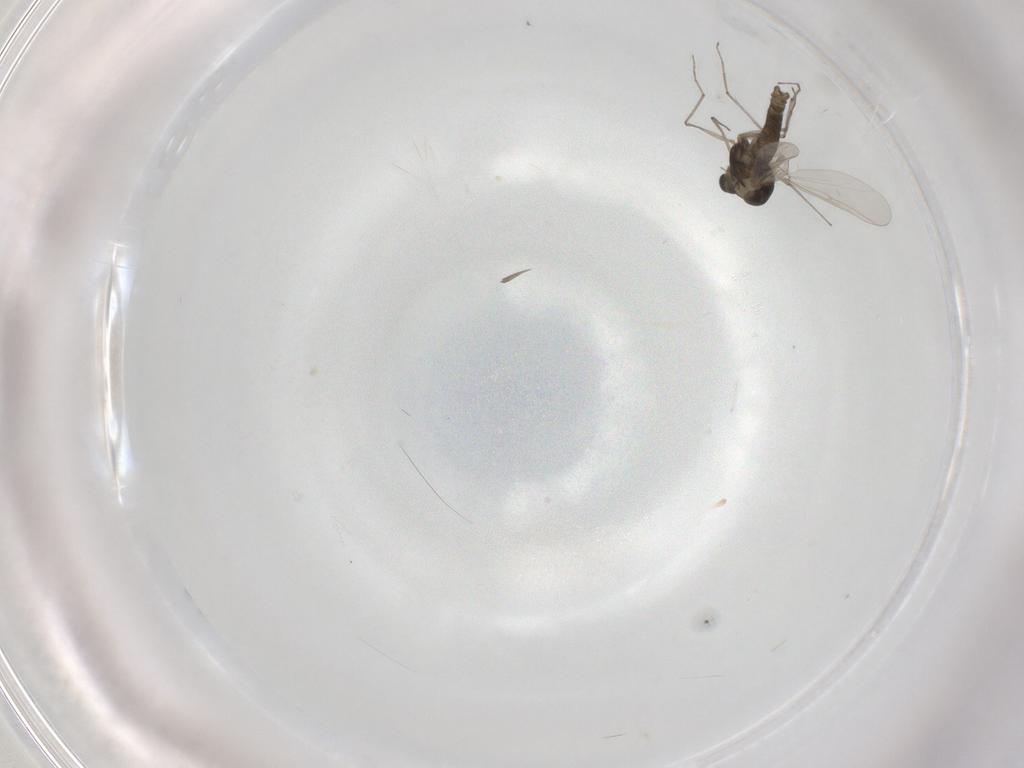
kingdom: Animalia
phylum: Arthropoda
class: Insecta
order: Diptera
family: Chironomidae
